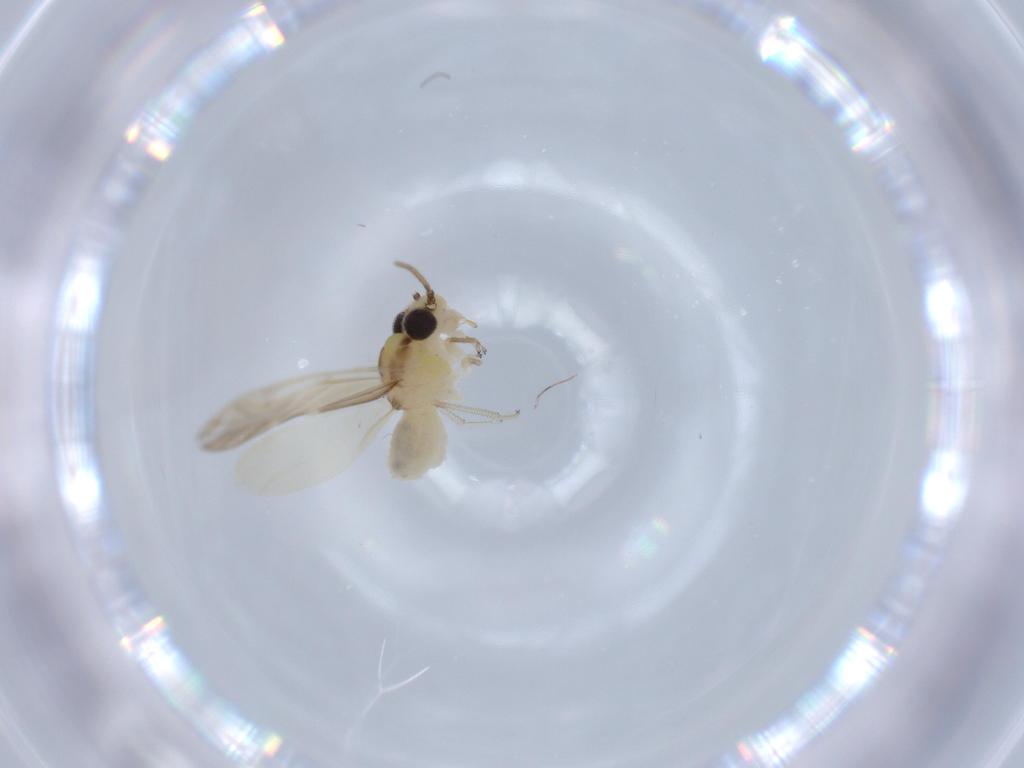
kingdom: Animalia
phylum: Arthropoda
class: Insecta
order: Psocodea
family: Caeciliusidae
